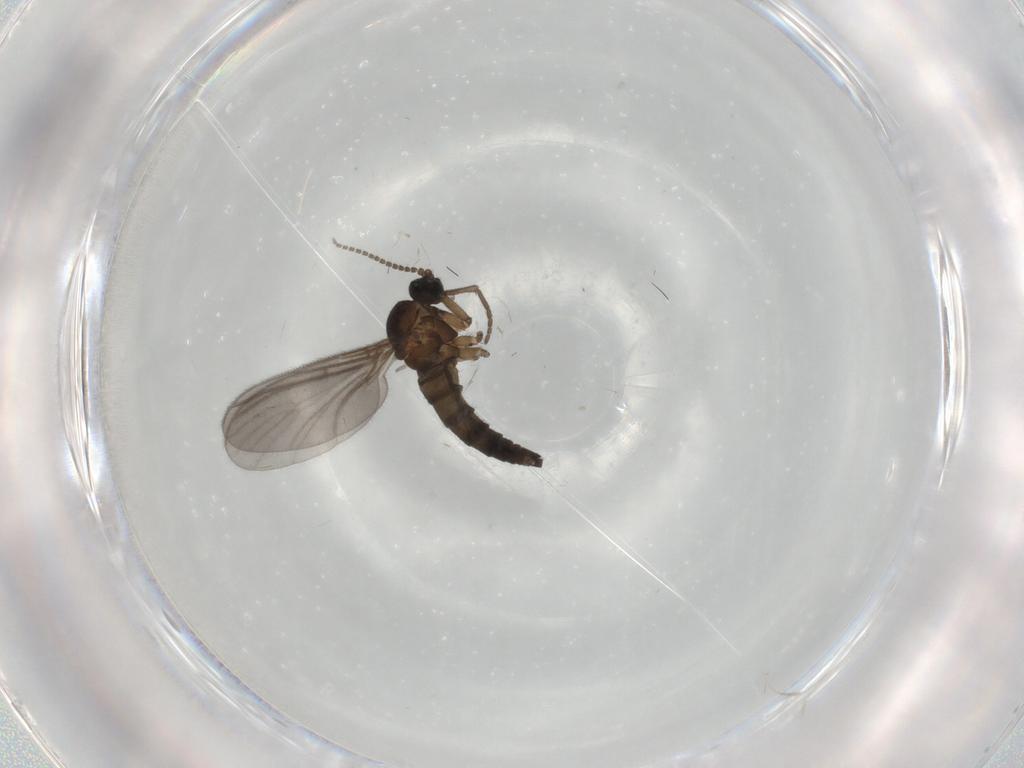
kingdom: Animalia
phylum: Arthropoda
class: Insecta
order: Diptera
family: Sciaridae
